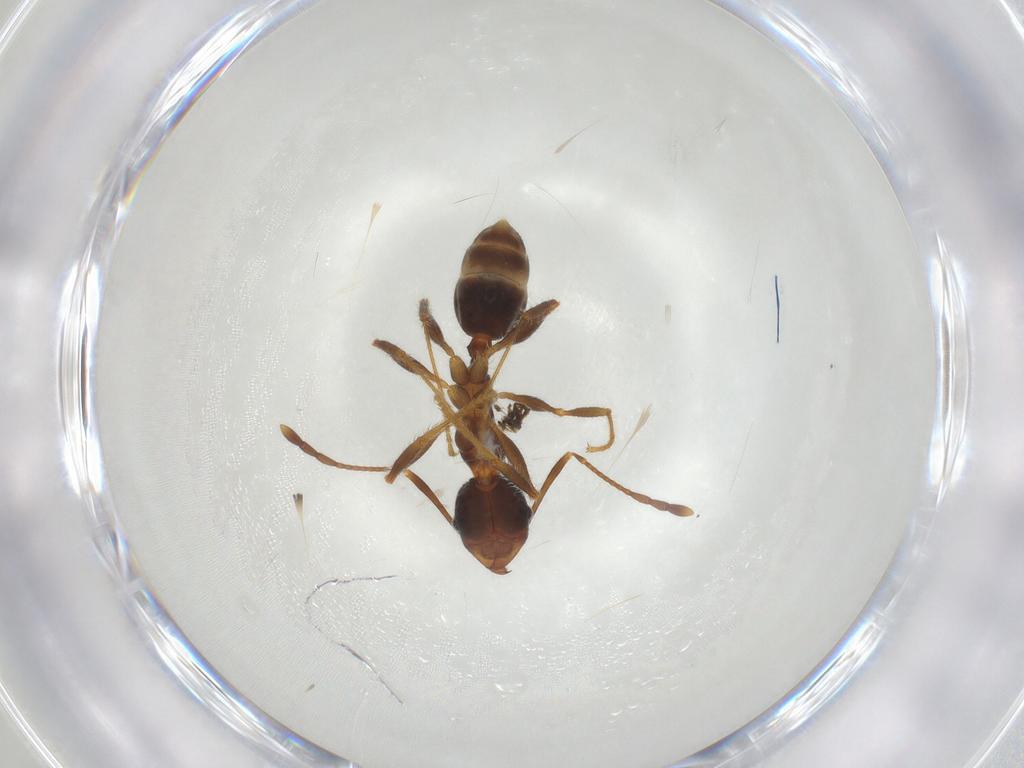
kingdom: Animalia
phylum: Arthropoda
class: Insecta
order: Hymenoptera
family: Formicidae
